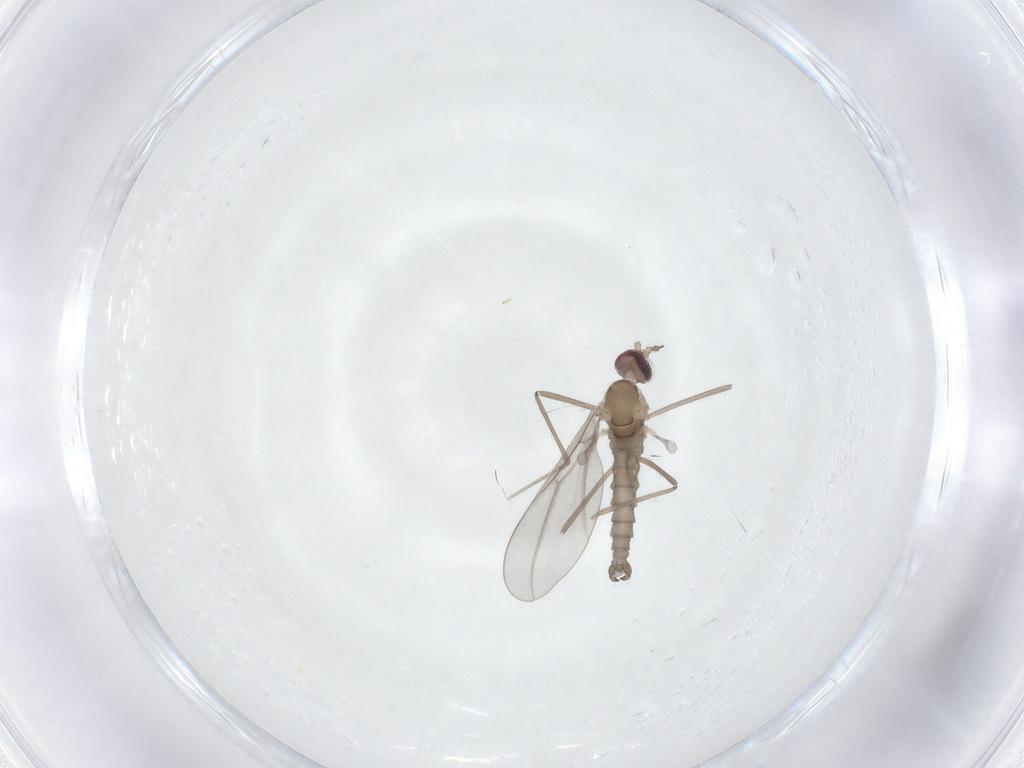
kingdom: Animalia
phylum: Arthropoda
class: Insecta
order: Diptera
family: Cecidomyiidae
